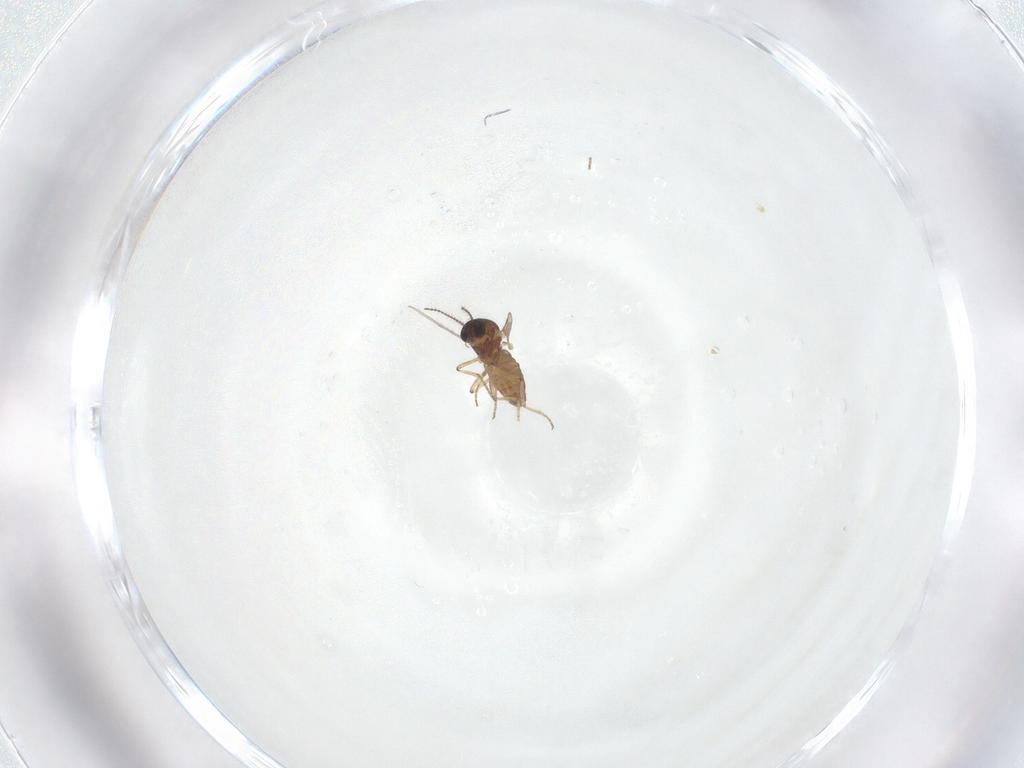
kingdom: Animalia
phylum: Arthropoda
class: Insecta
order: Diptera
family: Ceratopogonidae
